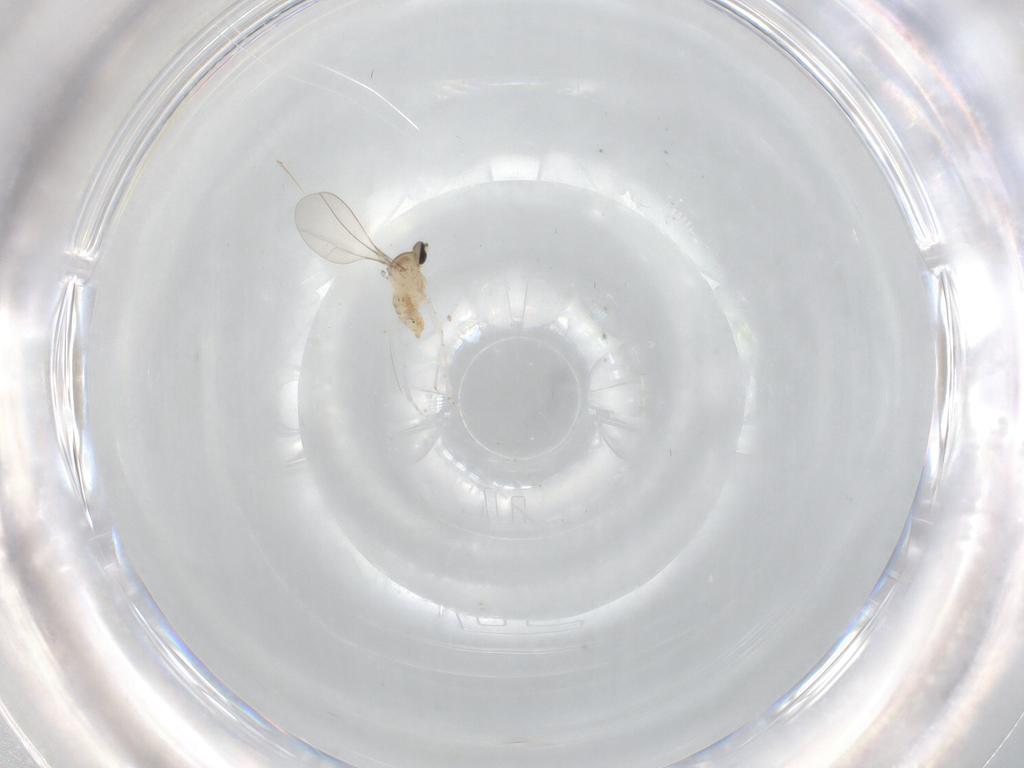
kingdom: Animalia
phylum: Arthropoda
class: Insecta
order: Diptera
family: Cecidomyiidae
